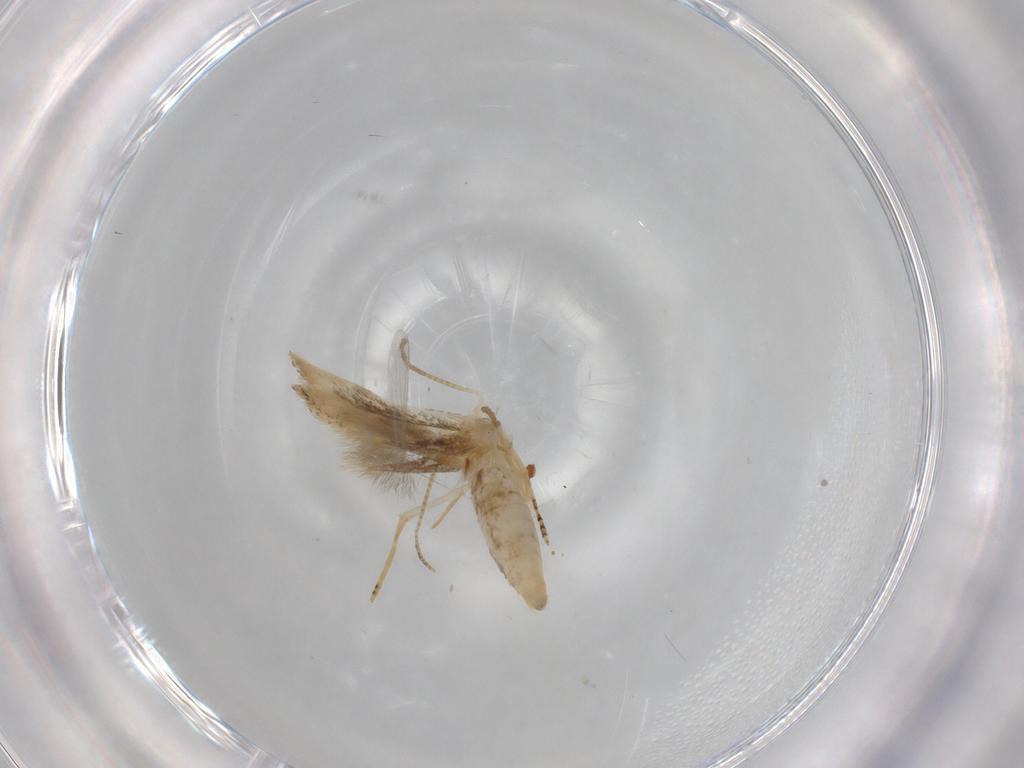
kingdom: Animalia
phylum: Arthropoda
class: Insecta
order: Lepidoptera
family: Bucculatricidae
